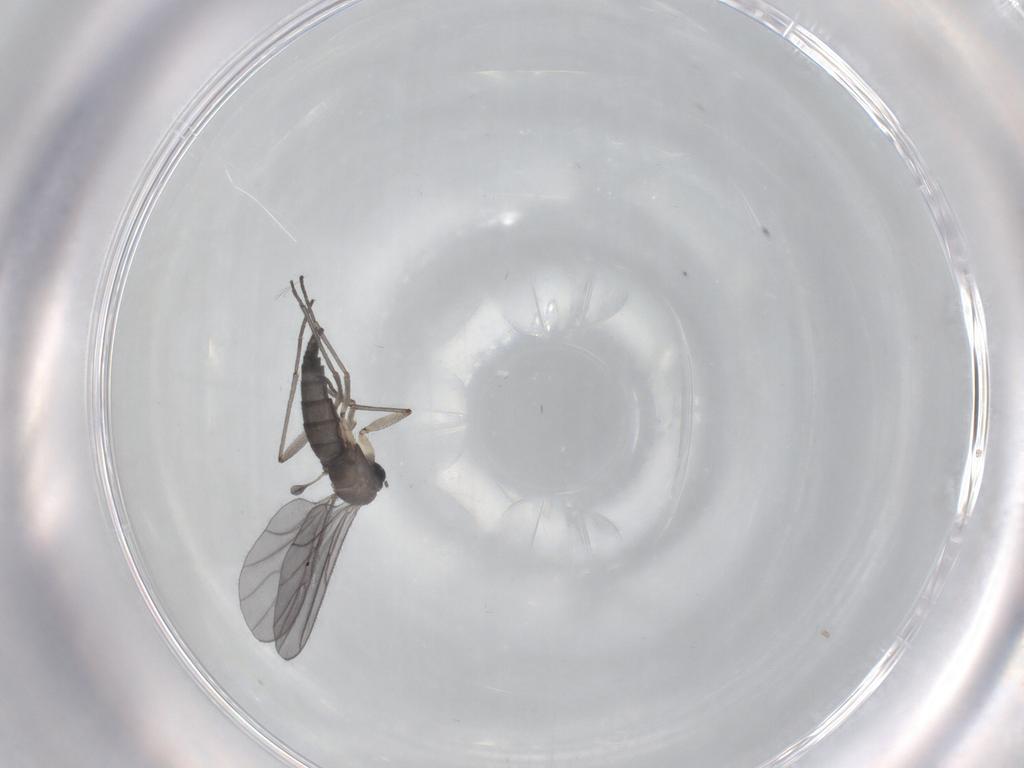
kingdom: Animalia
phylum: Arthropoda
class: Insecta
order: Diptera
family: Sciaridae
